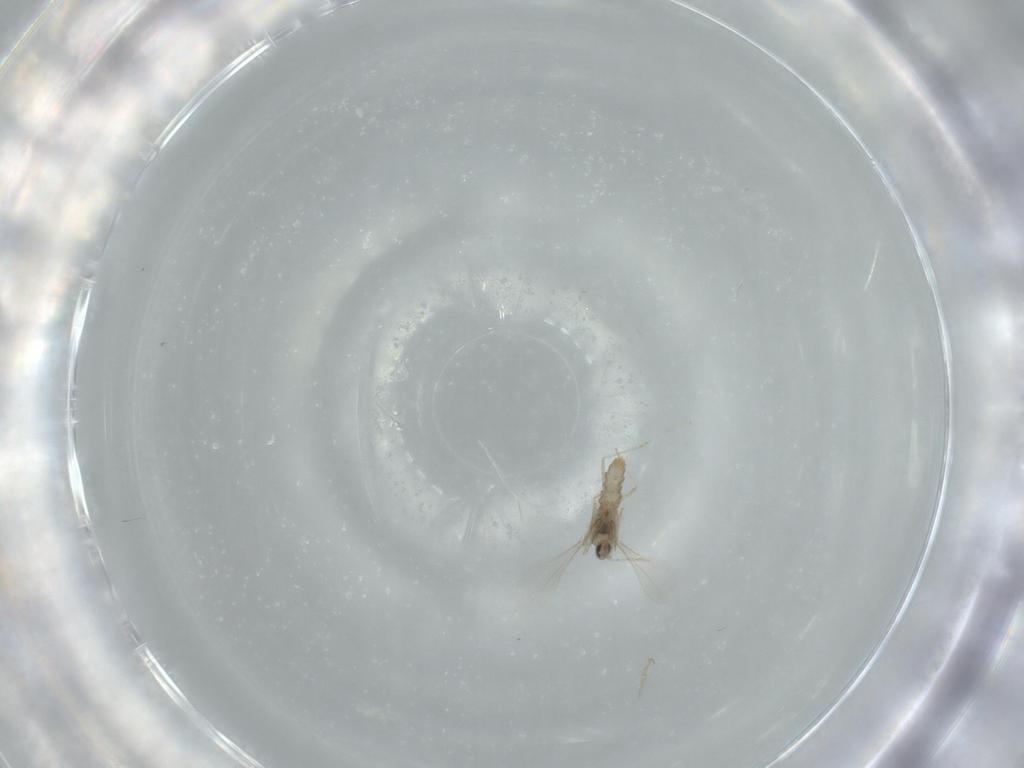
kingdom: Animalia
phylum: Arthropoda
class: Insecta
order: Diptera
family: Cecidomyiidae
